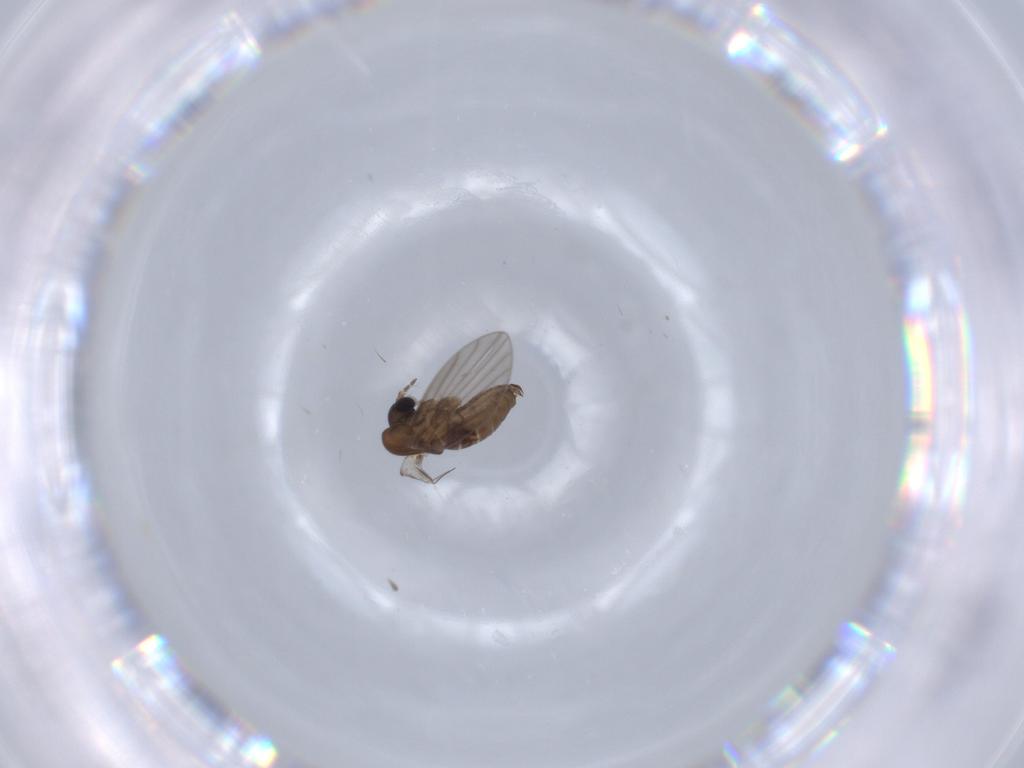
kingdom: Animalia
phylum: Arthropoda
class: Insecta
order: Diptera
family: Psychodidae
